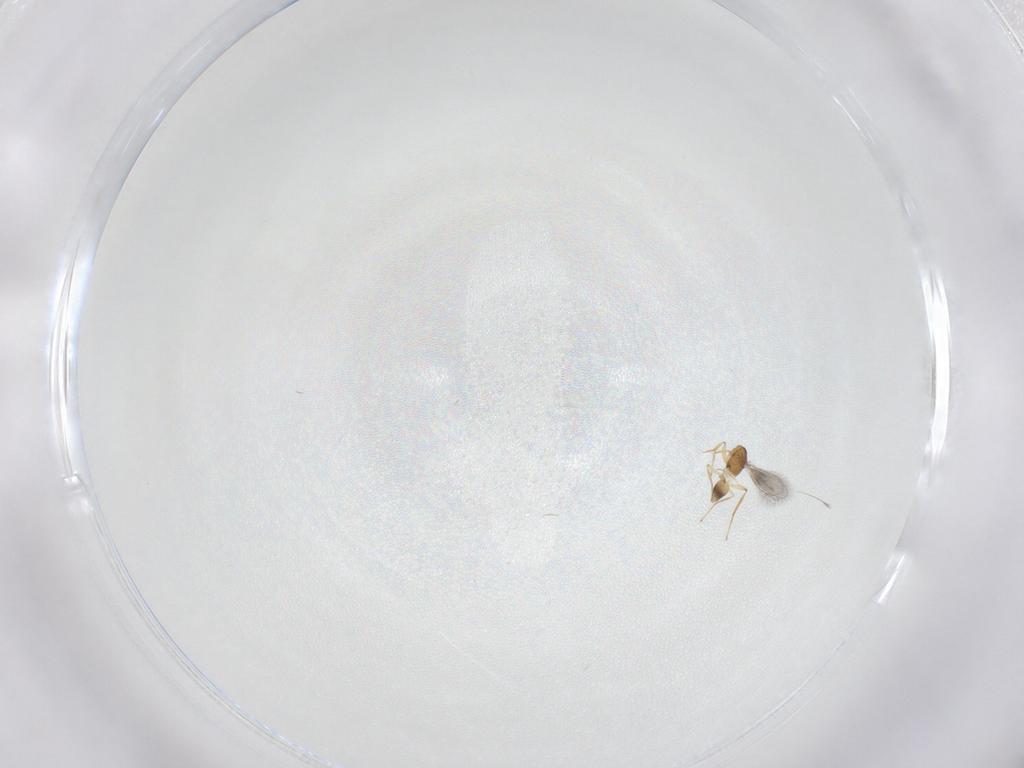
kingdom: Animalia
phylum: Arthropoda
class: Insecta
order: Hymenoptera
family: Mymaridae
